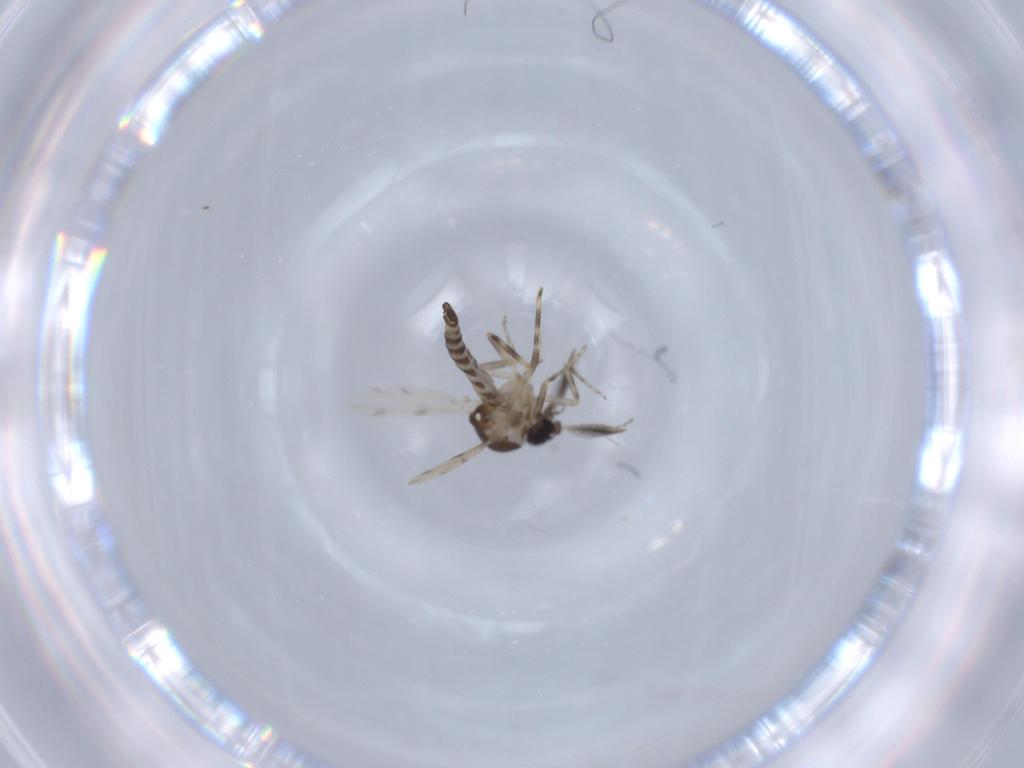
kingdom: Animalia
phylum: Arthropoda
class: Insecta
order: Diptera
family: Ceratopogonidae
